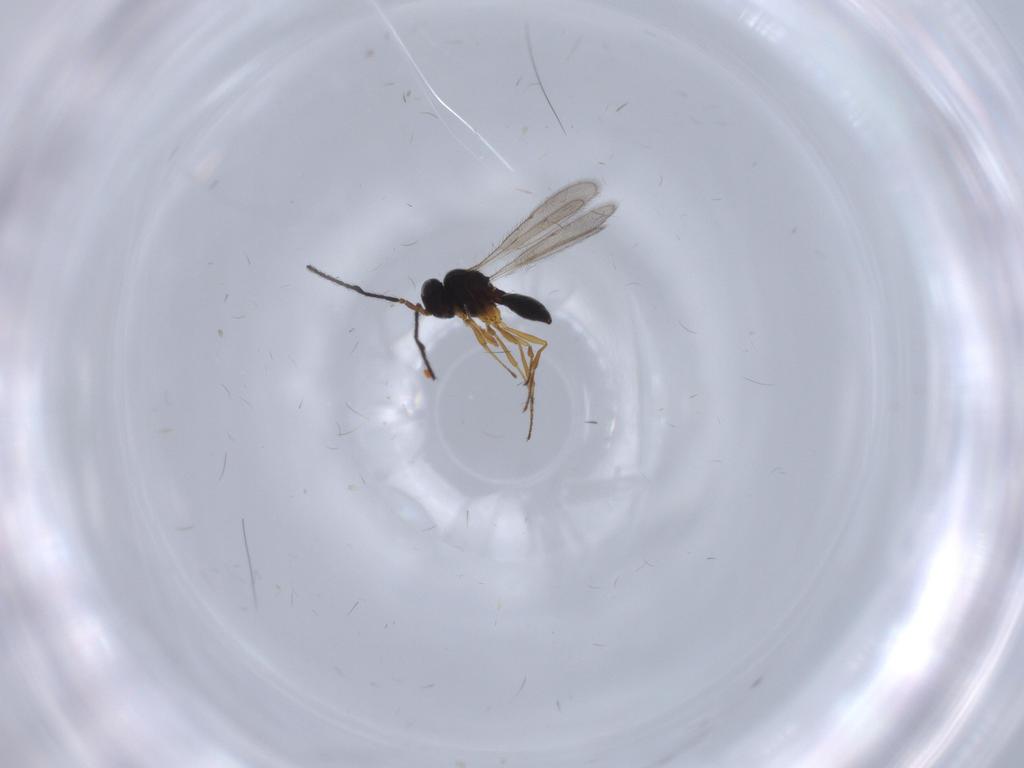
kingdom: Animalia
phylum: Arthropoda
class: Insecta
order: Hymenoptera
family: Scelionidae
